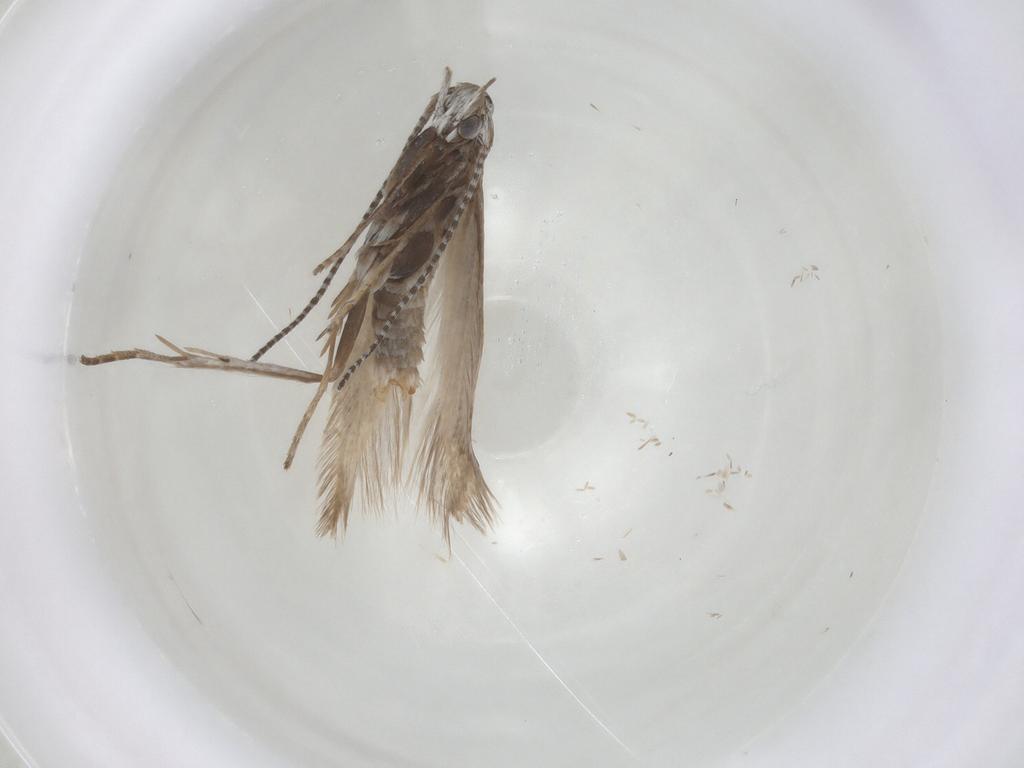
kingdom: Animalia
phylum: Arthropoda
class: Insecta
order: Lepidoptera
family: Coleophoridae
